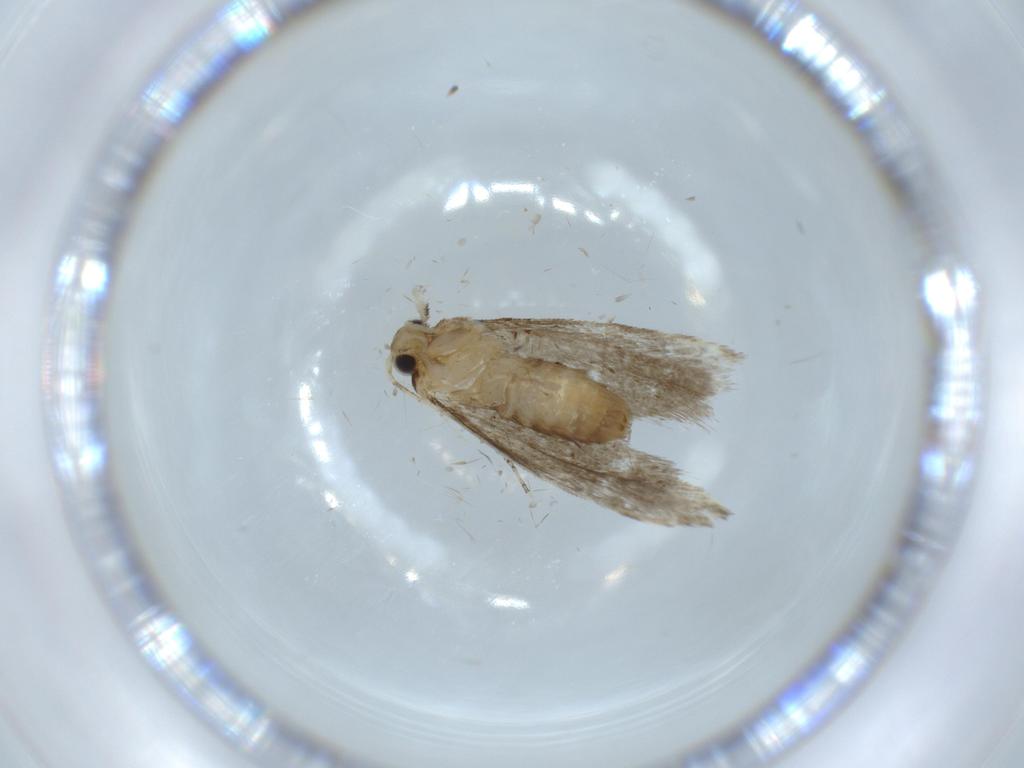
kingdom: Animalia
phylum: Arthropoda
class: Insecta
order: Lepidoptera
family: Tineidae
